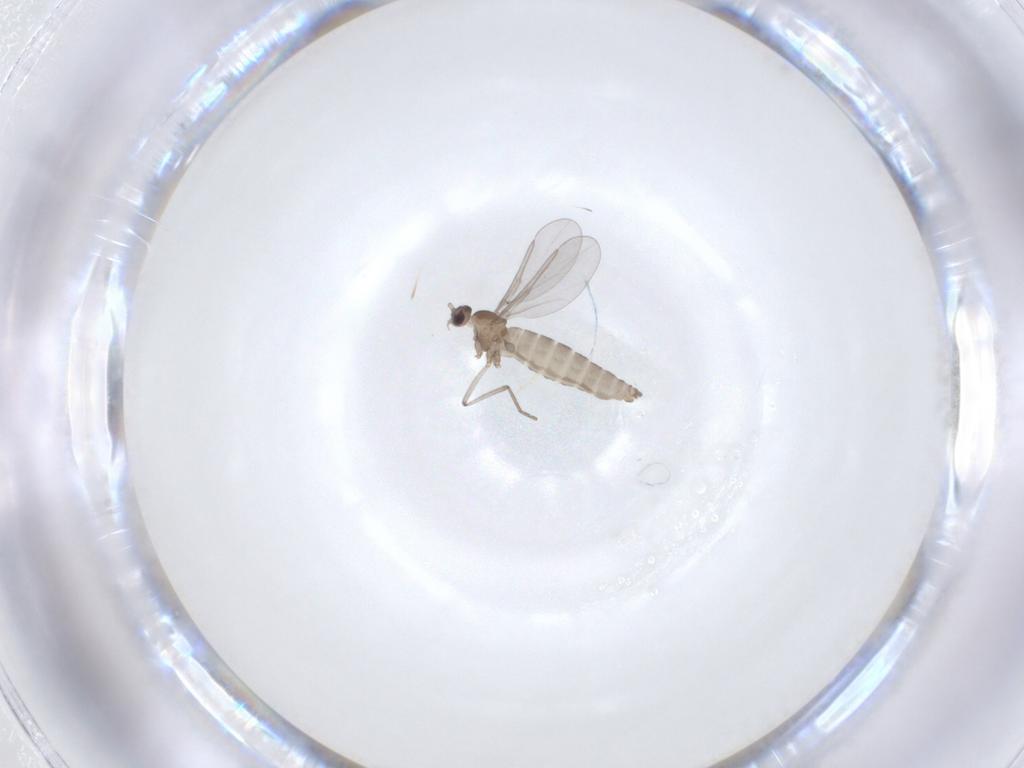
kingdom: Animalia
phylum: Arthropoda
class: Insecta
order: Diptera
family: Cecidomyiidae
